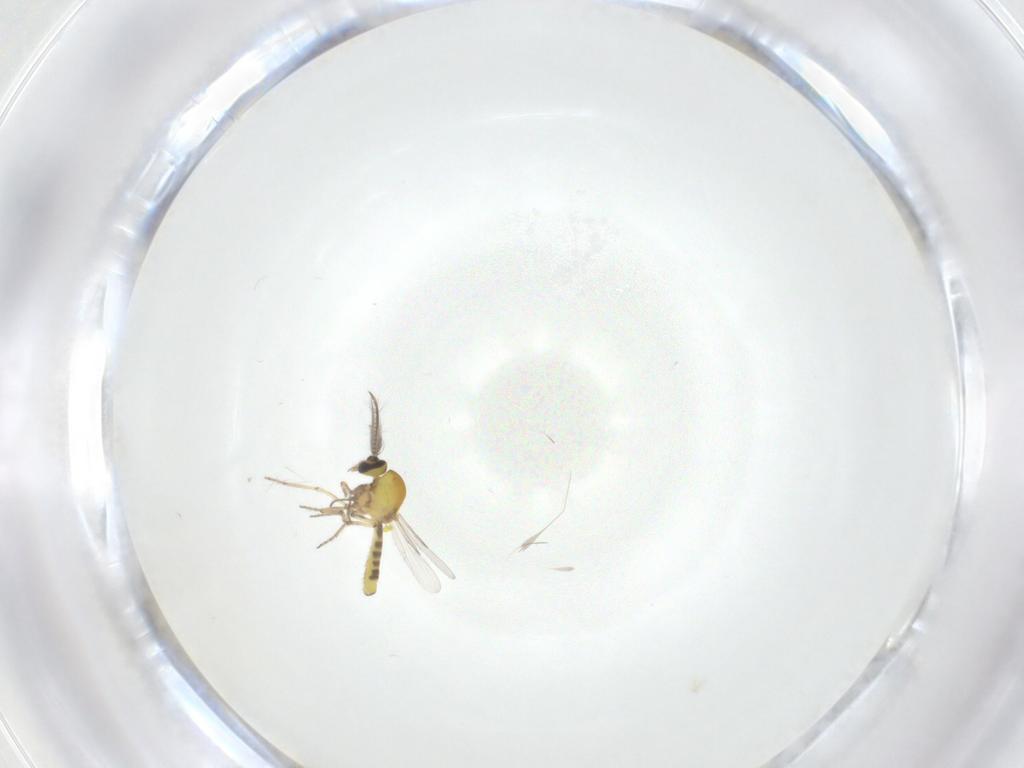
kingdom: Animalia
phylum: Arthropoda
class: Insecta
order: Diptera
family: Ceratopogonidae
